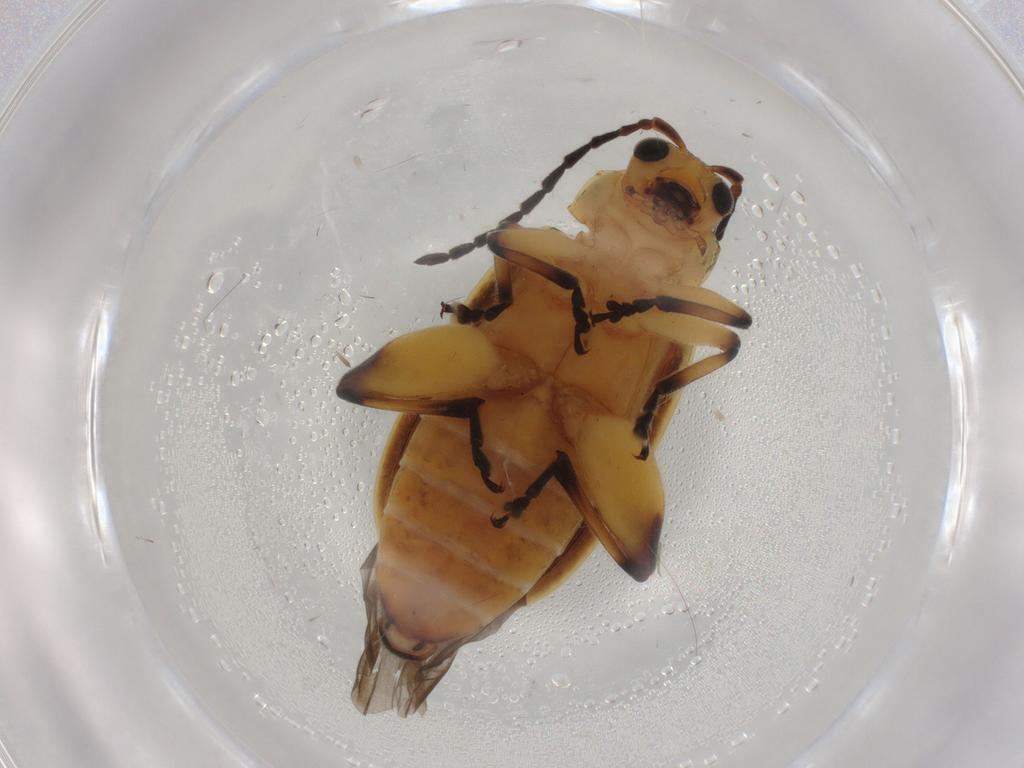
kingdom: Animalia
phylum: Arthropoda
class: Insecta
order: Coleoptera
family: Chrysomelidae
